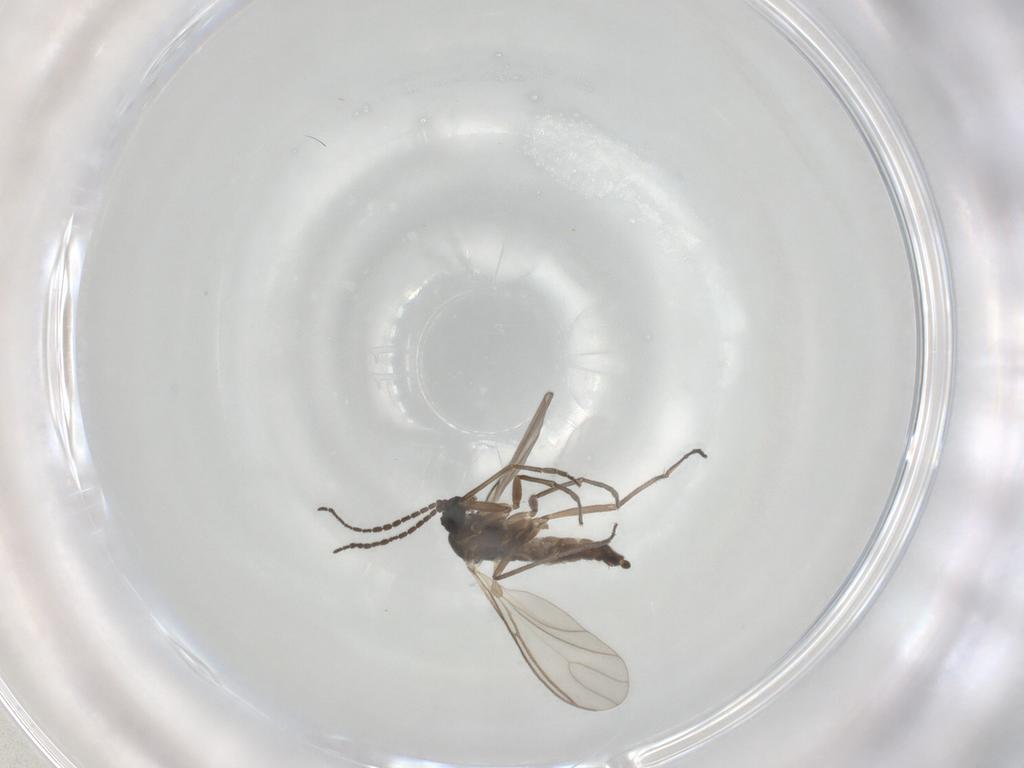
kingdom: Animalia
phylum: Arthropoda
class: Insecta
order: Diptera
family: Sciaridae
